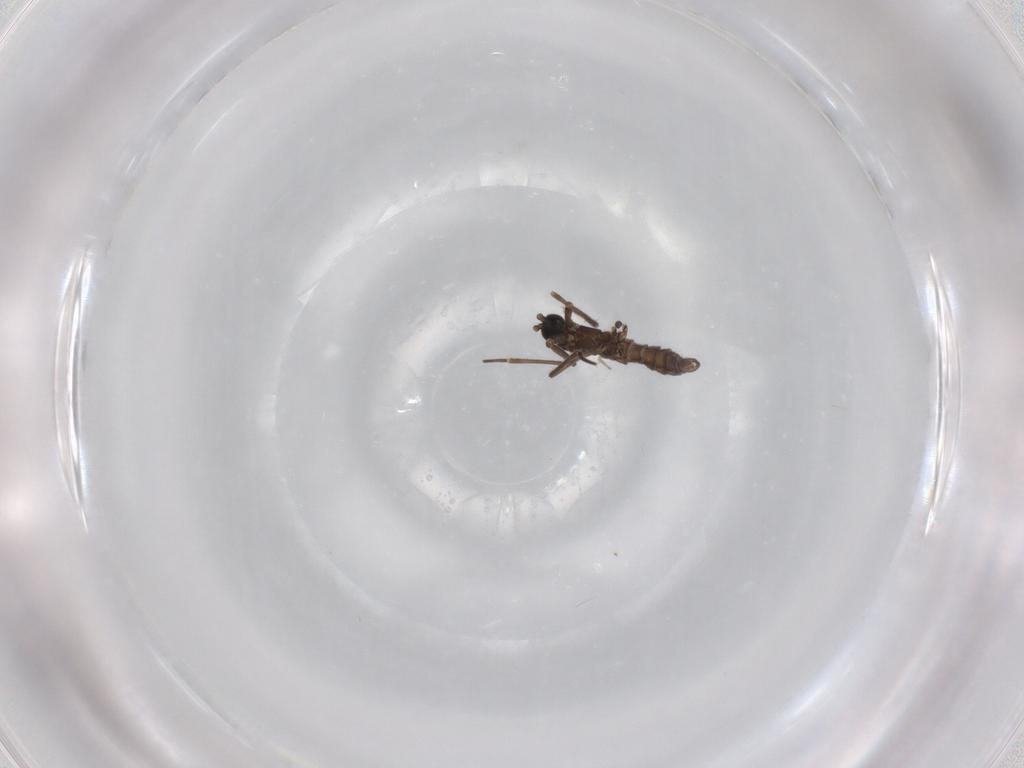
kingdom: Animalia
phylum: Arthropoda
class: Insecta
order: Diptera
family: Sciaridae
